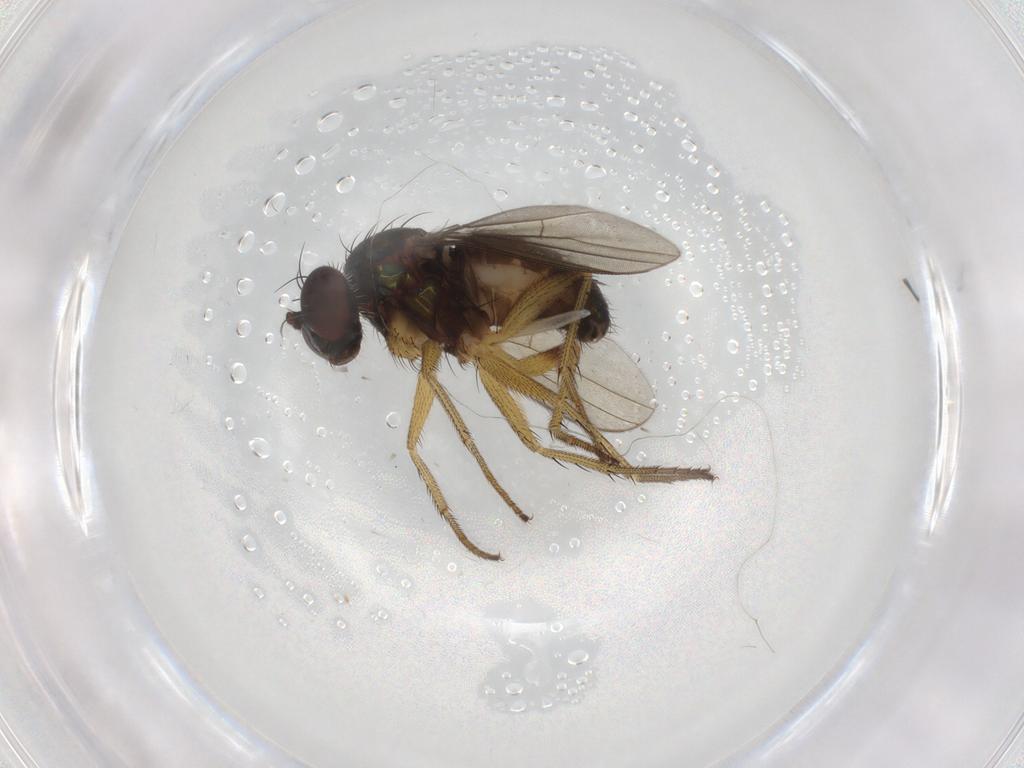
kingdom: Animalia
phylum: Arthropoda
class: Insecta
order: Diptera
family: Dolichopodidae
